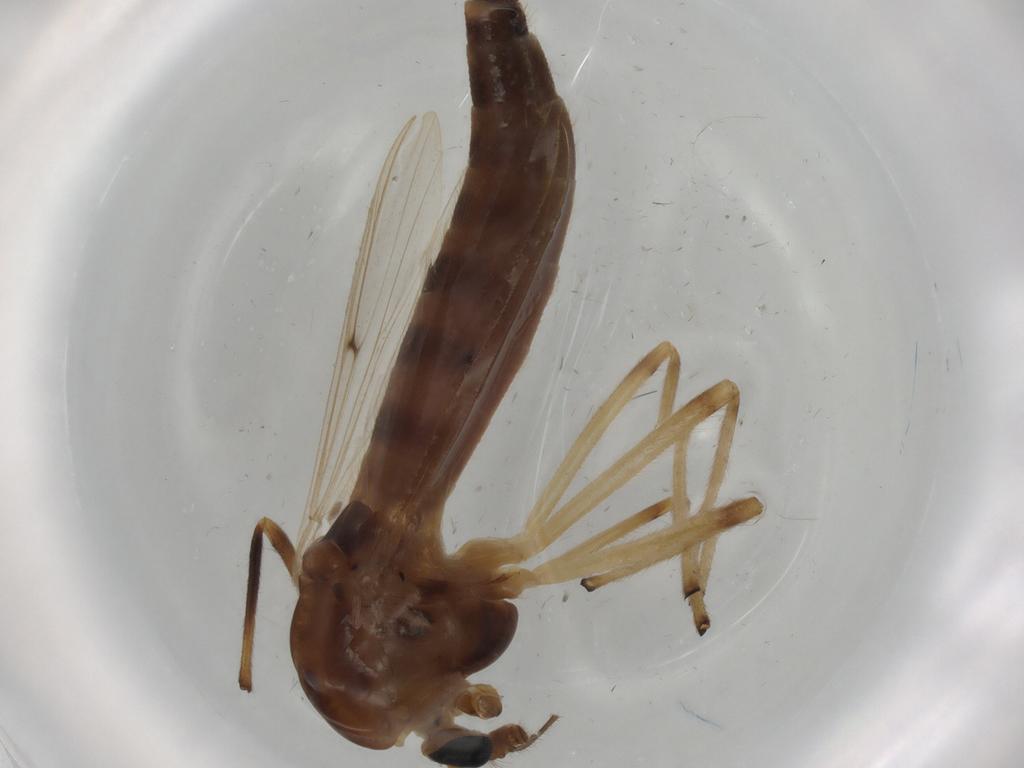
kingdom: Animalia
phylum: Arthropoda
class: Insecta
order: Diptera
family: Chironomidae
